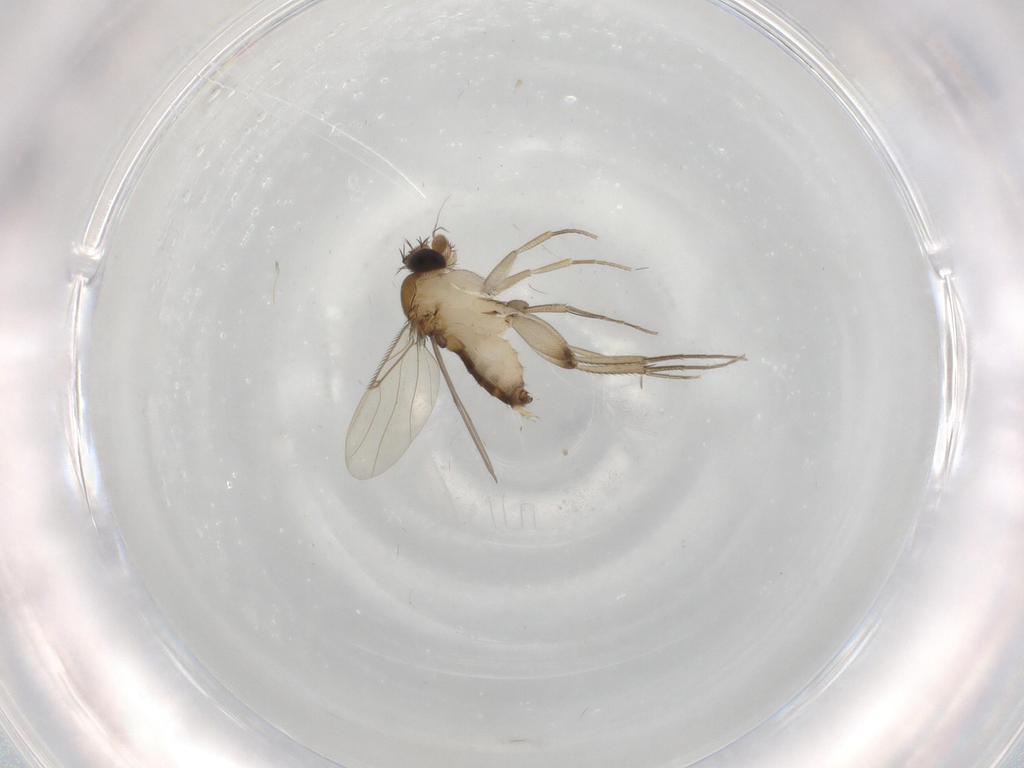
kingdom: Animalia
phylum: Arthropoda
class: Insecta
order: Diptera
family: Phoridae
